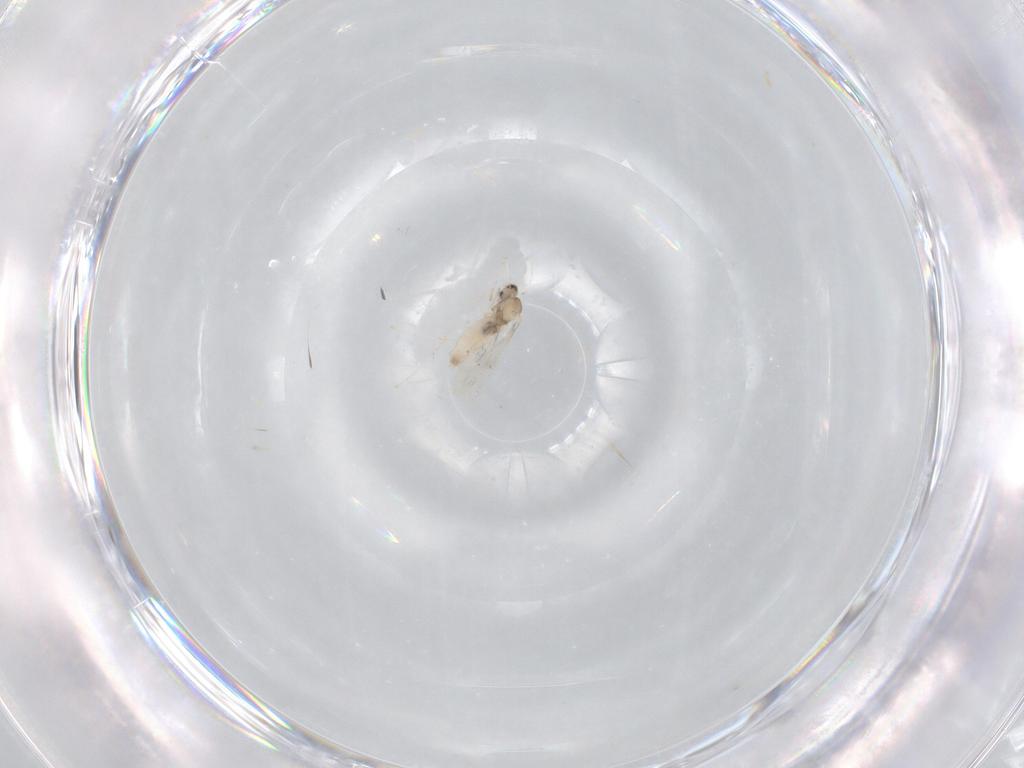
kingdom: Animalia
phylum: Arthropoda
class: Insecta
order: Diptera
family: Cecidomyiidae
